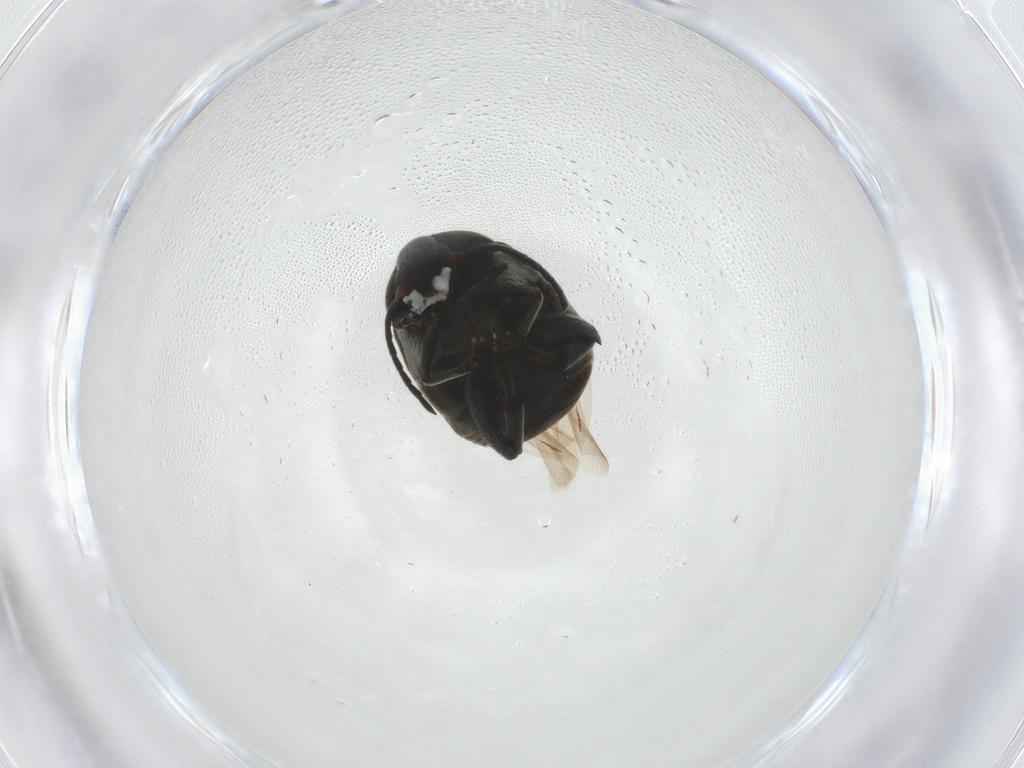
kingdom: Animalia
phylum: Arthropoda
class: Insecta
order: Coleoptera
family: Chrysomelidae
